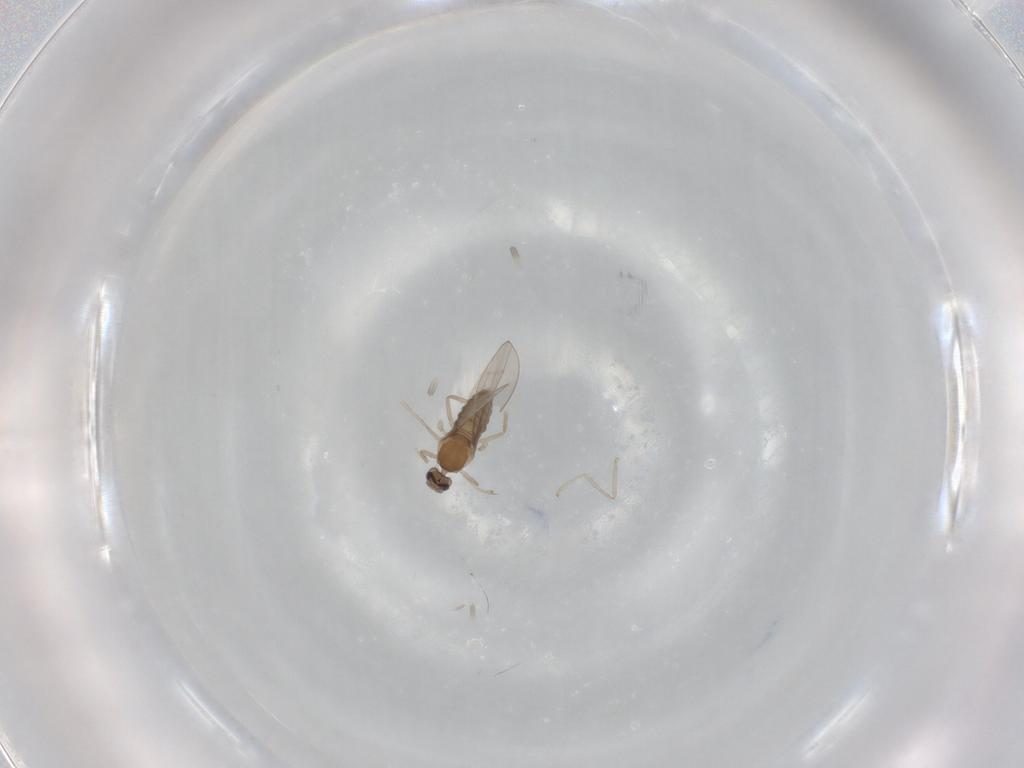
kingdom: Animalia
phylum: Arthropoda
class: Insecta
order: Diptera
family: Cecidomyiidae
